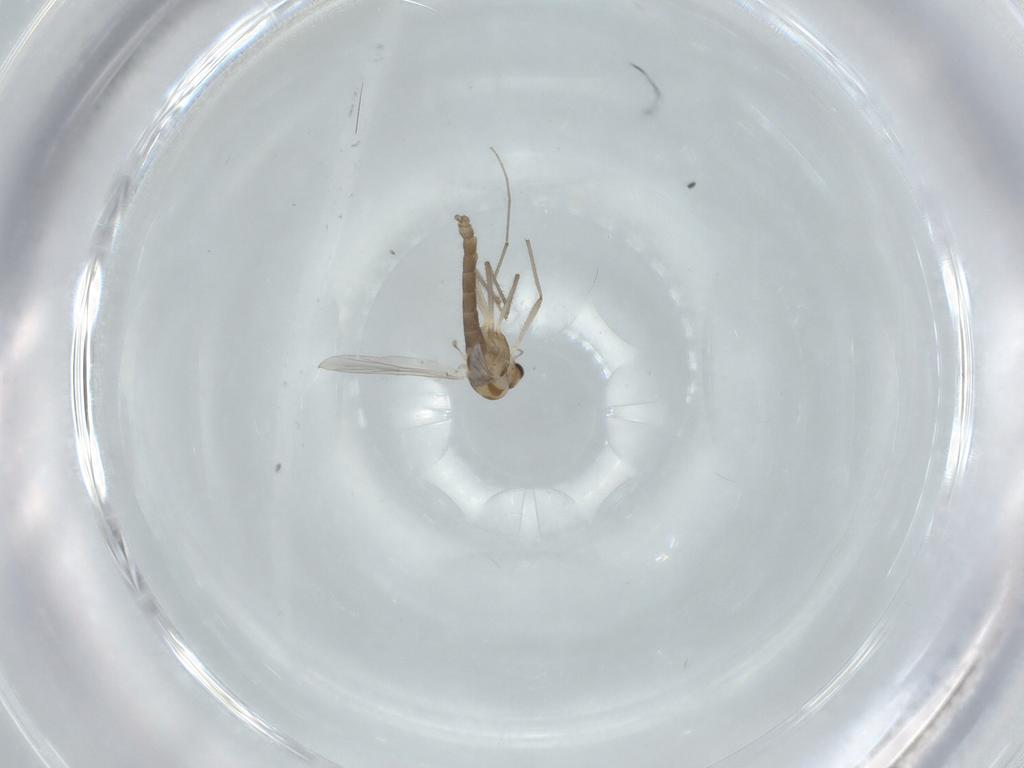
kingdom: Animalia
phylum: Arthropoda
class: Insecta
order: Diptera
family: Chironomidae
